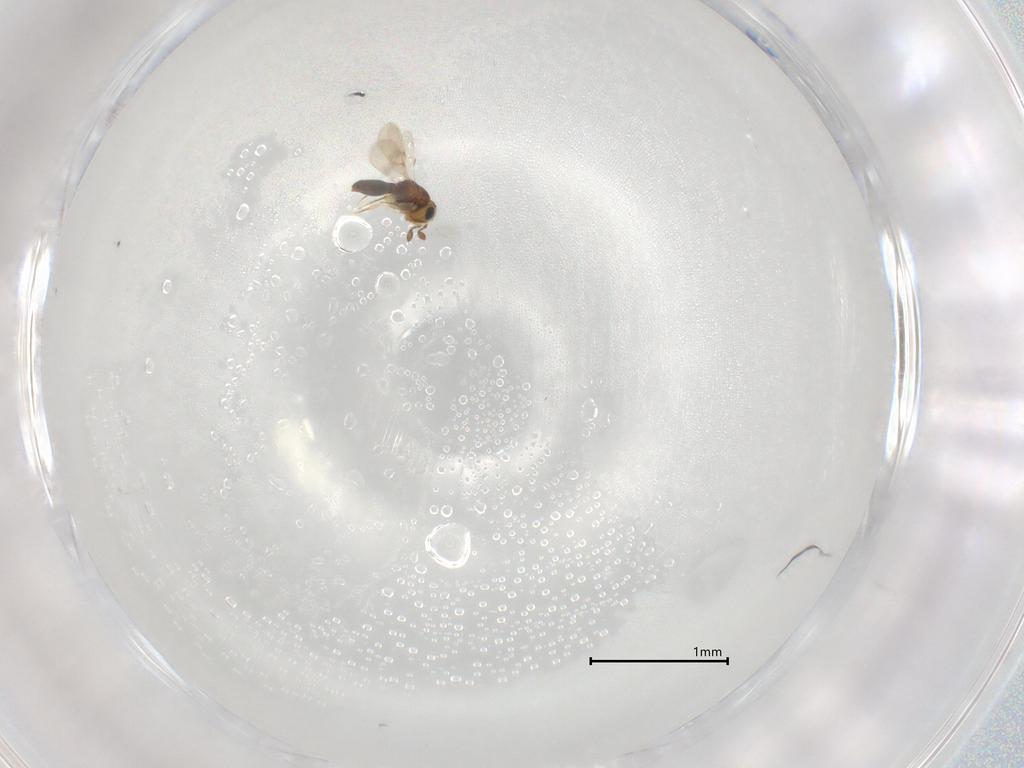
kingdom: Animalia
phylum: Arthropoda
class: Insecta
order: Hymenoptera
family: Scelionidae
